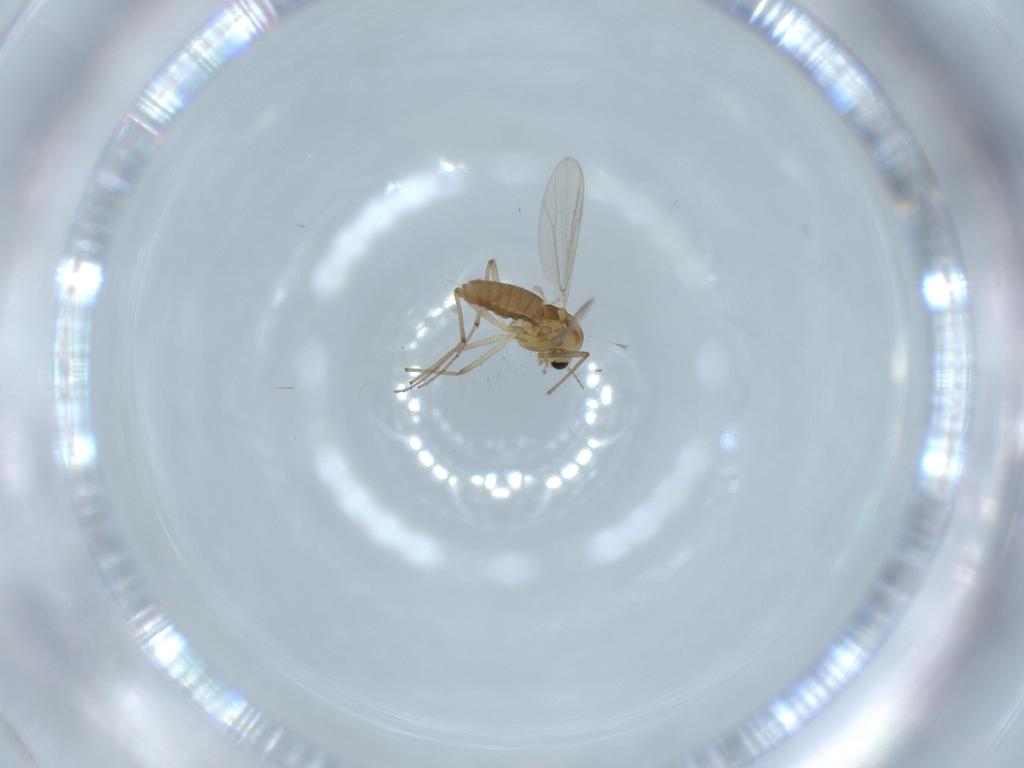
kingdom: Animalia
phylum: Arthropoda
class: Insecta
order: Diptera
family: Chironomidae
